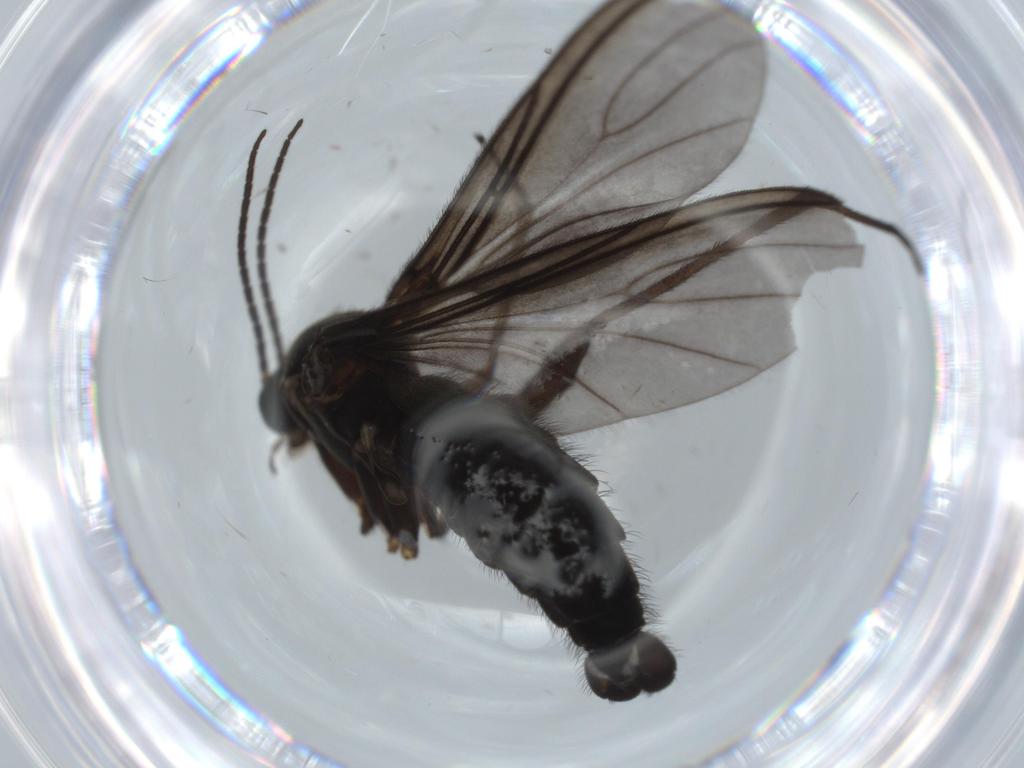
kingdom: Animalia
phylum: Arthropoda
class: Insecta
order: Diptera
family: Sciaridae
